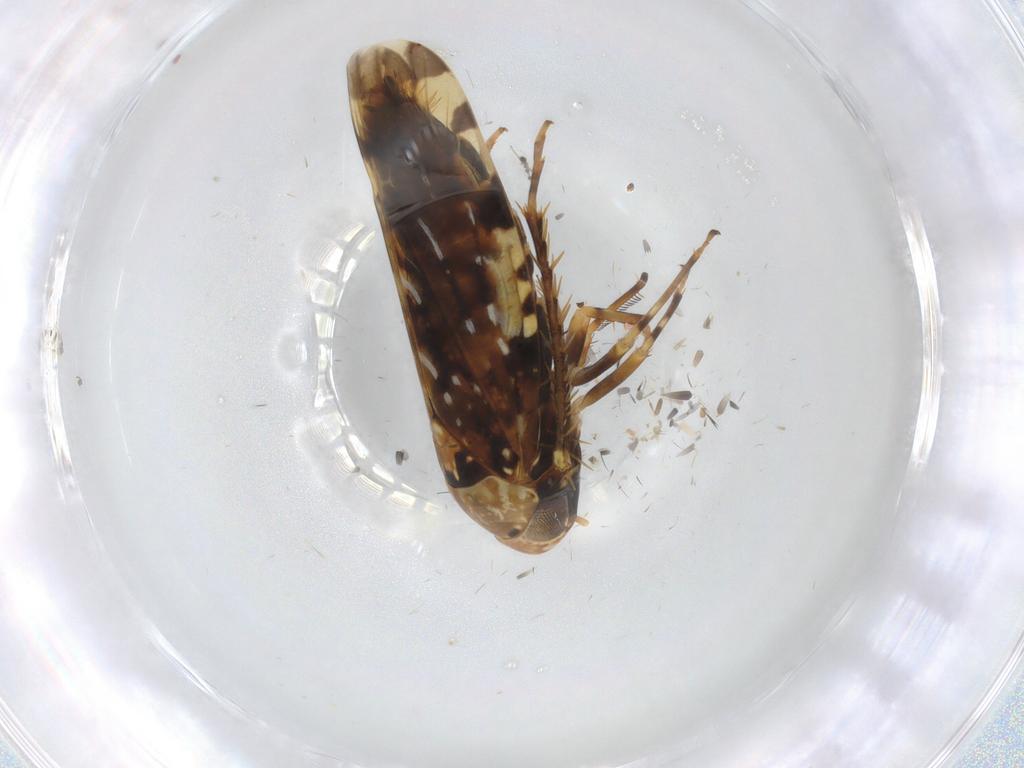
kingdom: Animalia
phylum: Arthropoda
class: Insecta
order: Hemiptera
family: Cicadellidae
